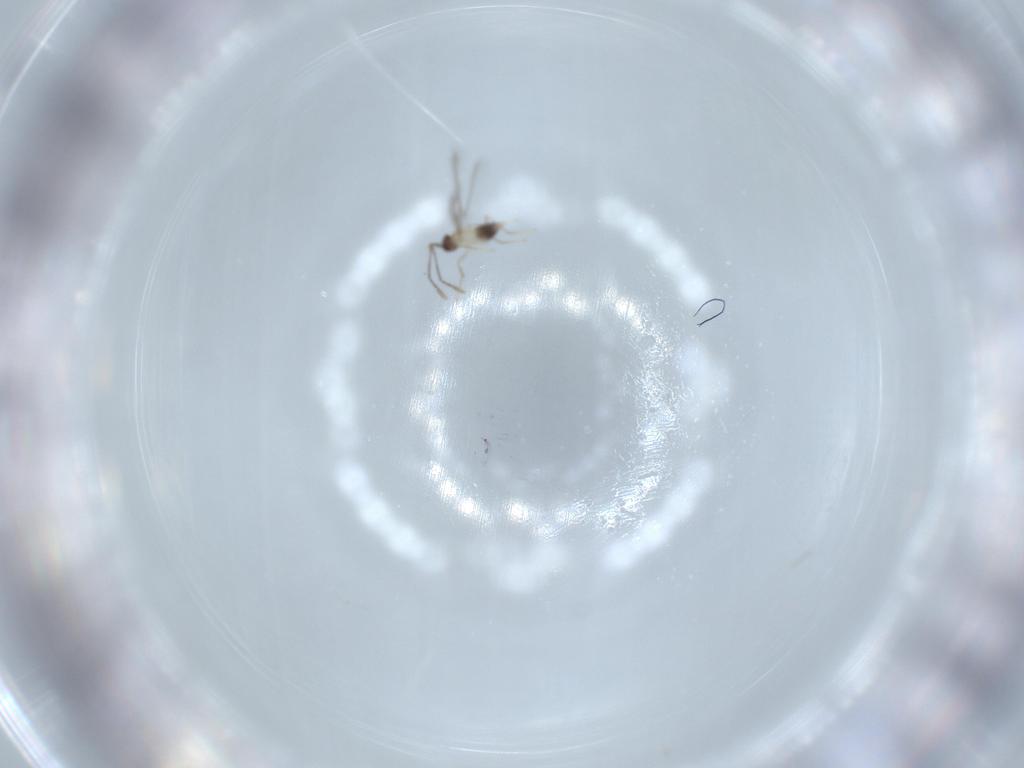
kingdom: Animalia
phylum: Arthropoda
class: Insecta
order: Hymenoptera
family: Mymaridae
